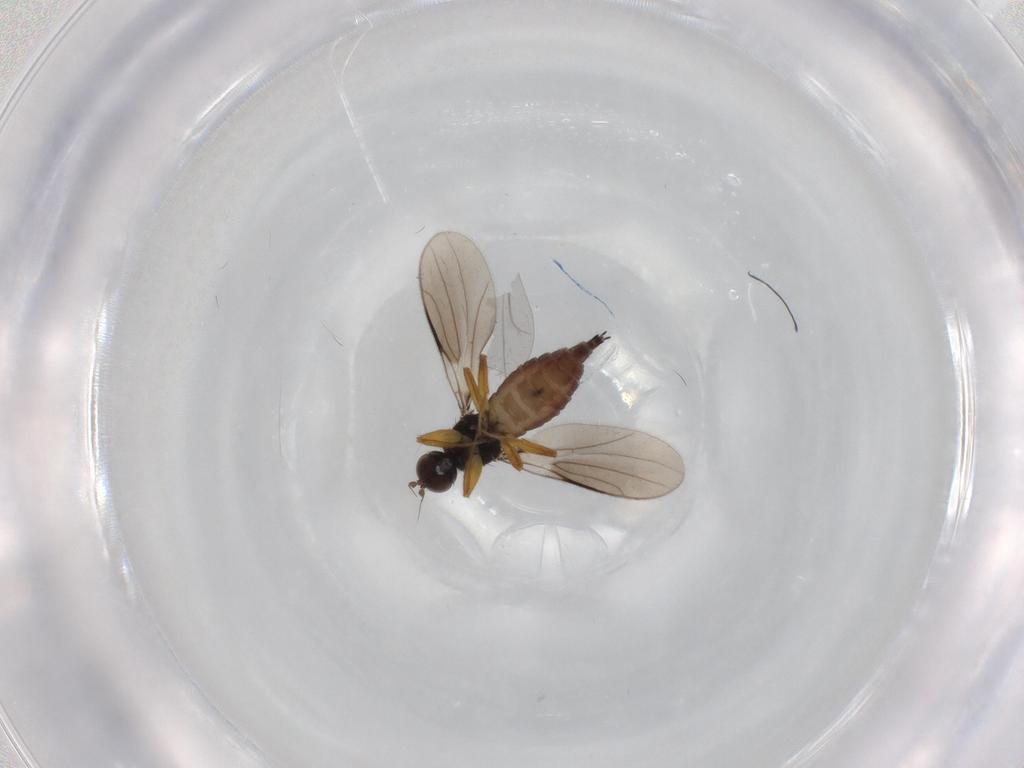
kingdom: Animalia
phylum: Arthropoda
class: Insecta
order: Diptera
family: Hybotidae
